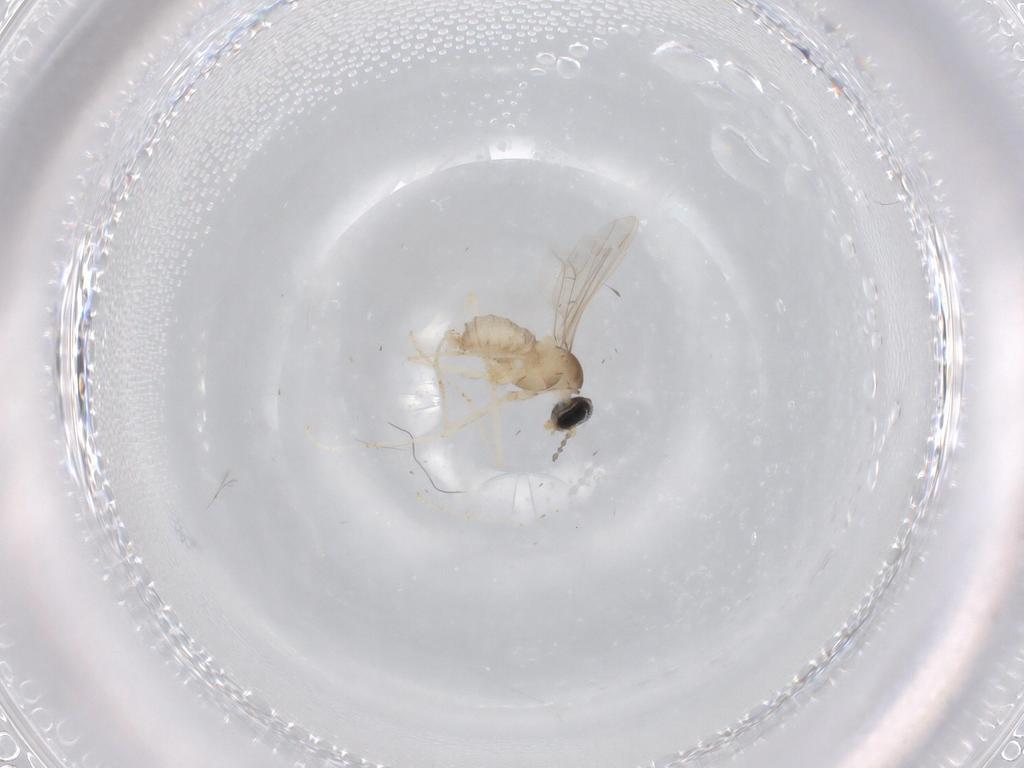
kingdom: Animalia
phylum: Arthropoda
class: Insecta
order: Diptera
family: Cecidomyiidae
